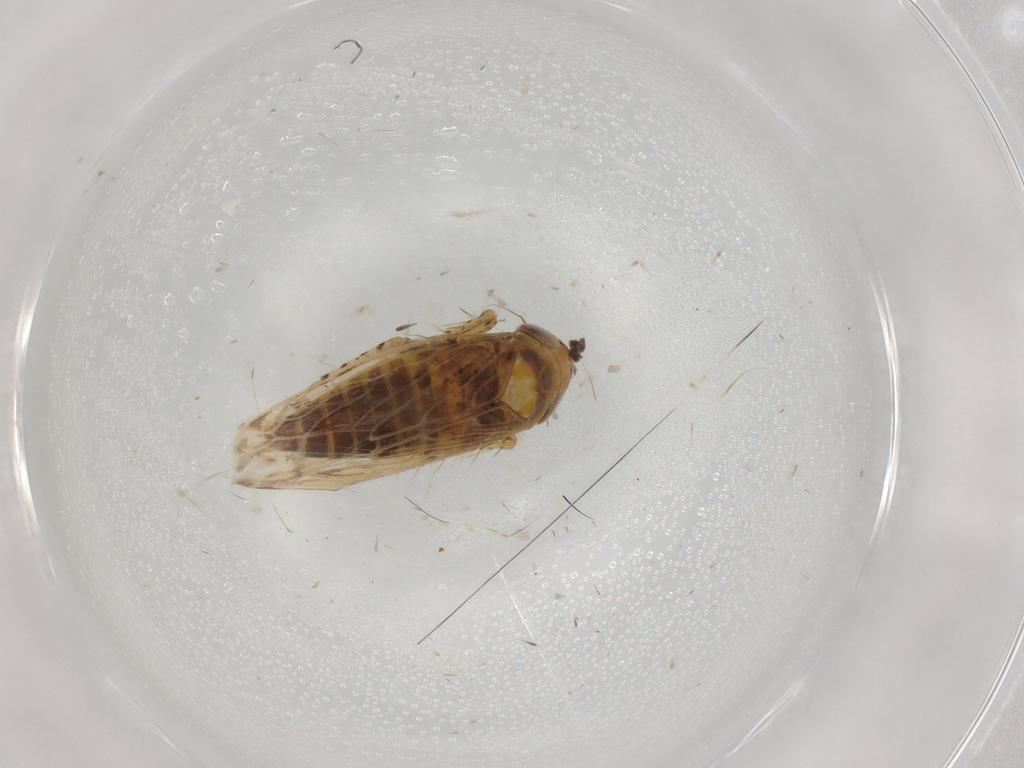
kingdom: Animalia
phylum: Arthropoda
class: Insecta
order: Hemiptera
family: Cicadellidae
